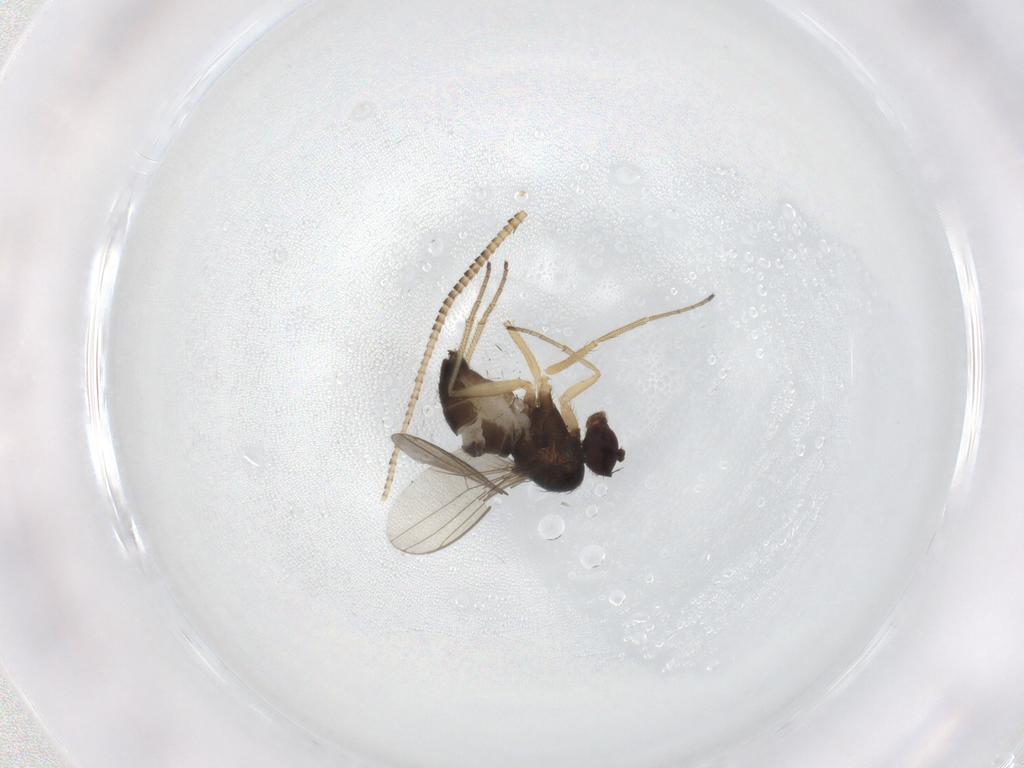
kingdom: Animalia
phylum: Arthropoda
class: Insecta
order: Diptera
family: Dolichopodidae
